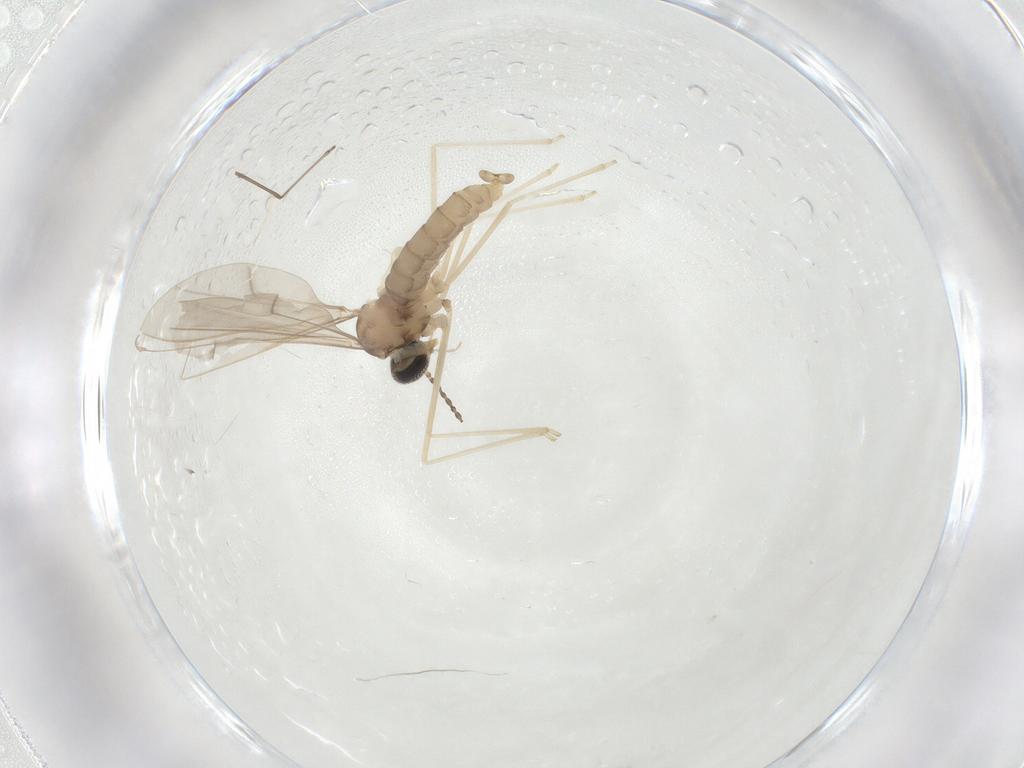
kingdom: Animalia
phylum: Arthropoda
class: Insecta
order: Diptera
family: Cecidomyiidae
